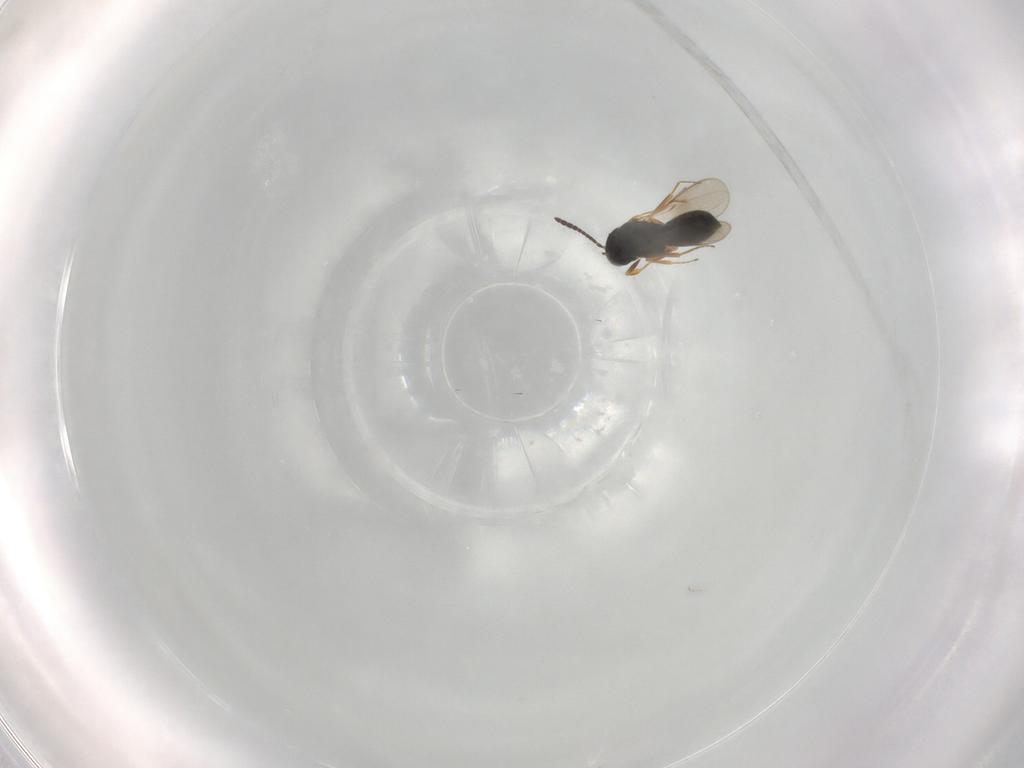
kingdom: Animalia
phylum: Arthropoda
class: Insecta
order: Hymenoptera
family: Scelionidae
